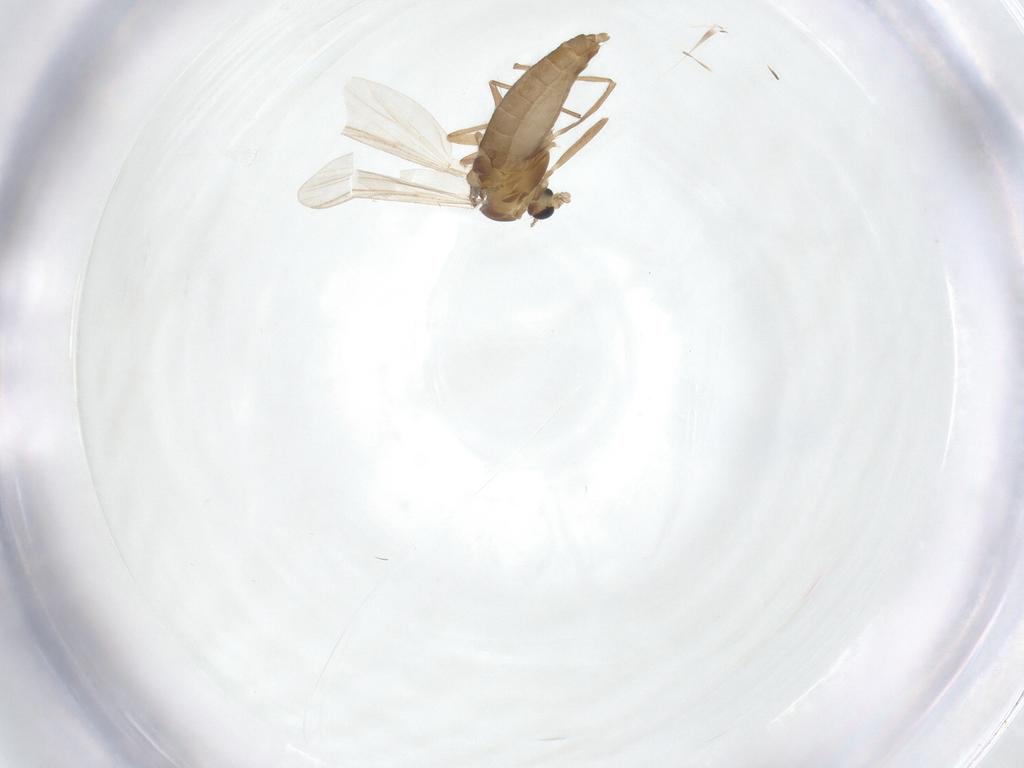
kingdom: Animalia
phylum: Arthropoda
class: Insecta
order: Diptera
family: Chironomidae
